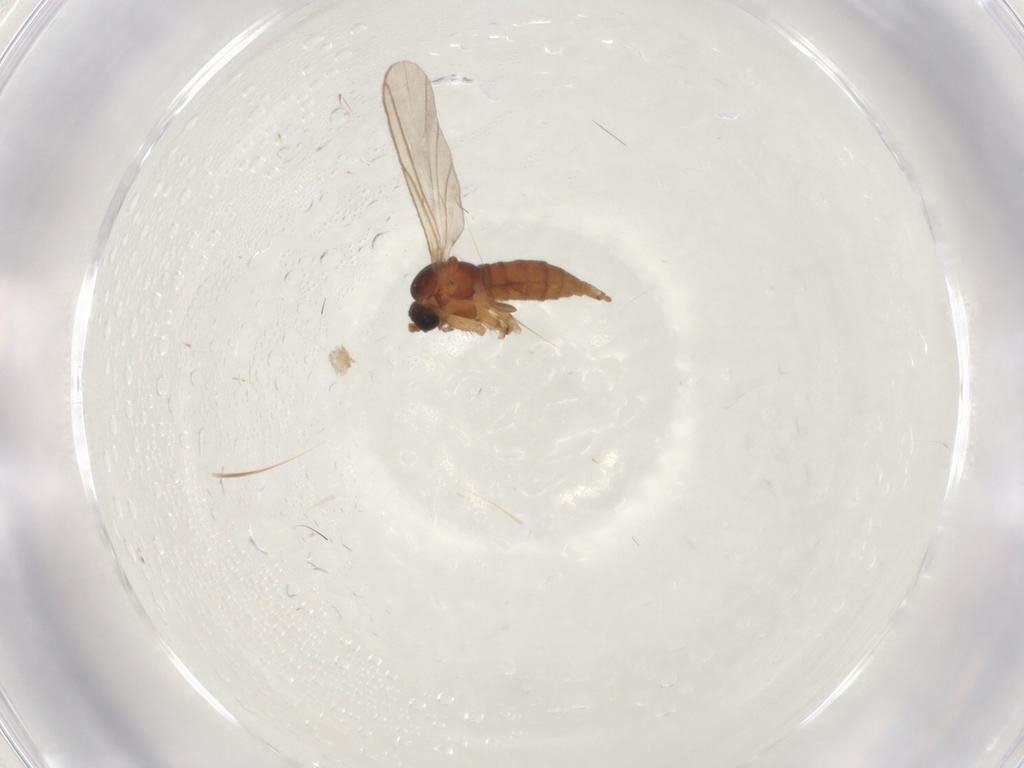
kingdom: Animalia
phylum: Arthropoda
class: Insecta
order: Diptera
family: Sciaridae
